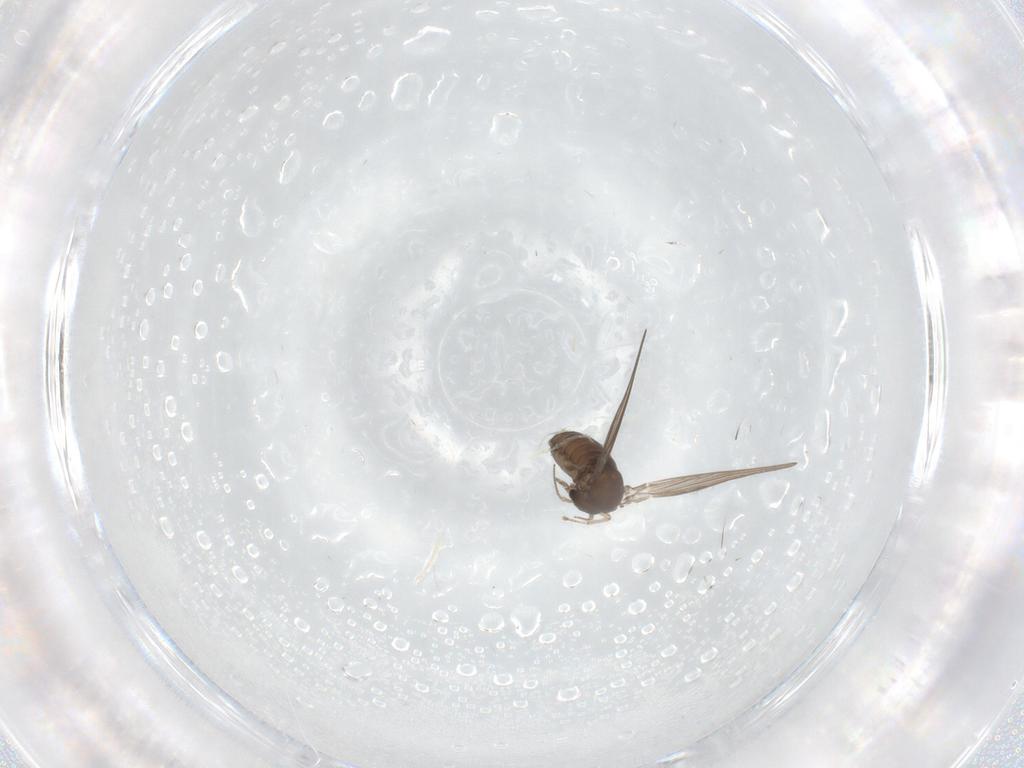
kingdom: Animalia
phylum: Arthropoda
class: Insecta
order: Diptera
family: Psychodidae
